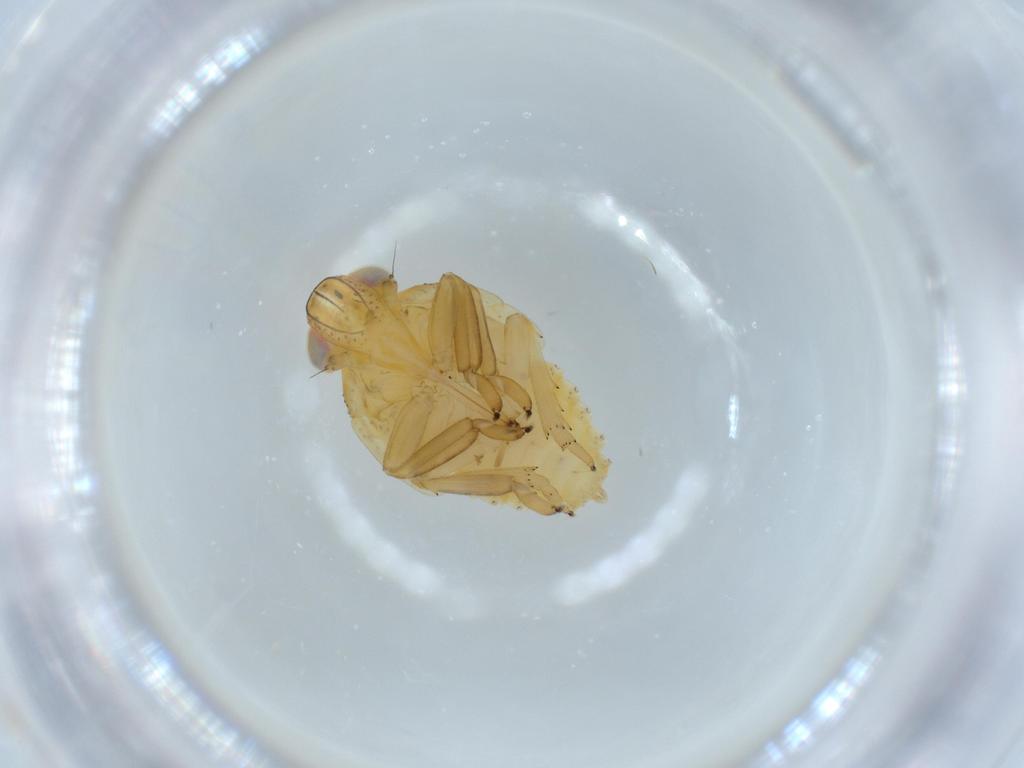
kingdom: Animalia
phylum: Arthropoda
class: Insecta
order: Hemiptera
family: Issidae
